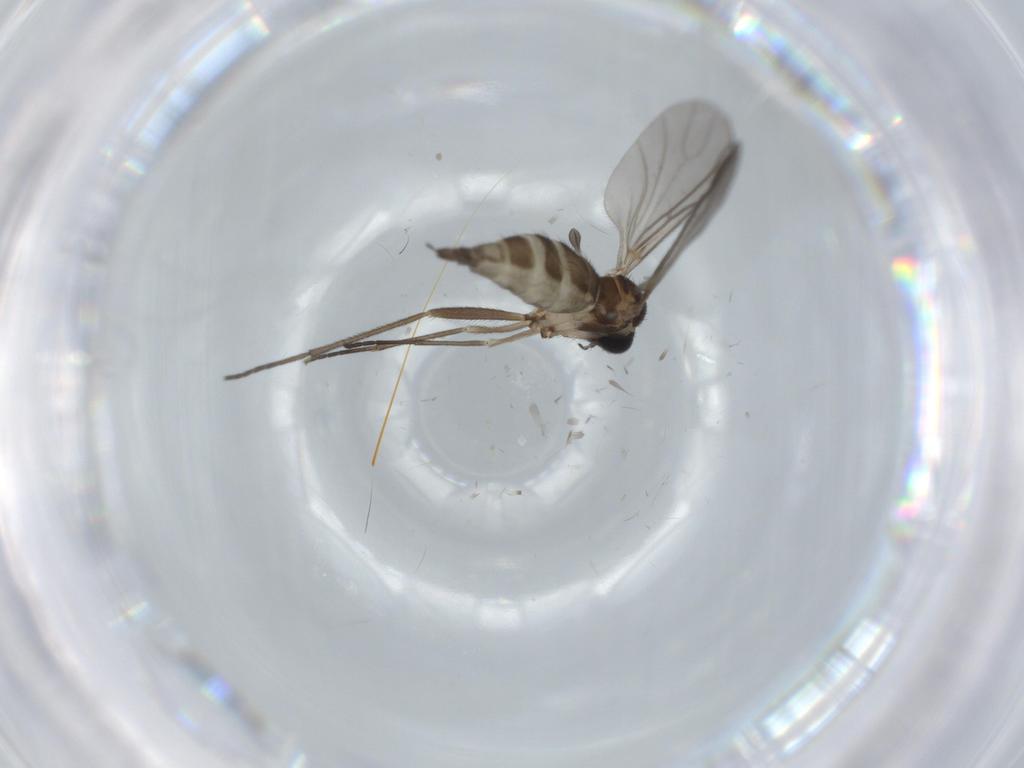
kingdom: Animalia
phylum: Arthropoda
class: Insecta
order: Diptera
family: Sciaridae
